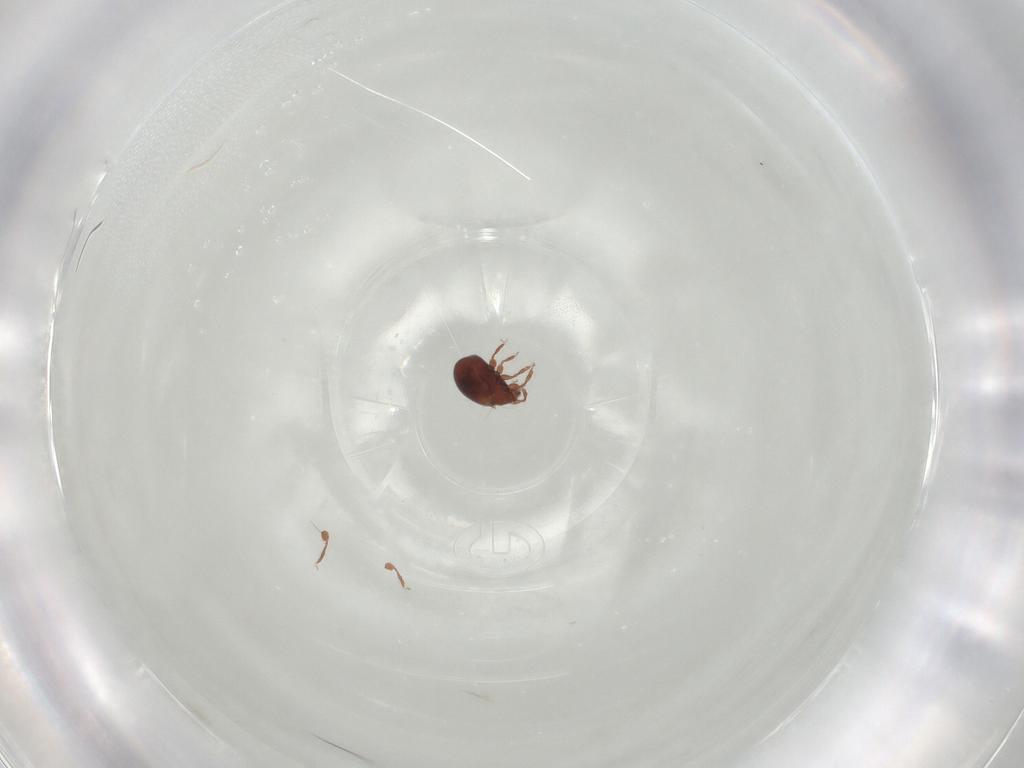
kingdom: Animalia
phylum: Arthropoda
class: Arachnida
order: Sarcoptiformes
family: Humerobatidae
